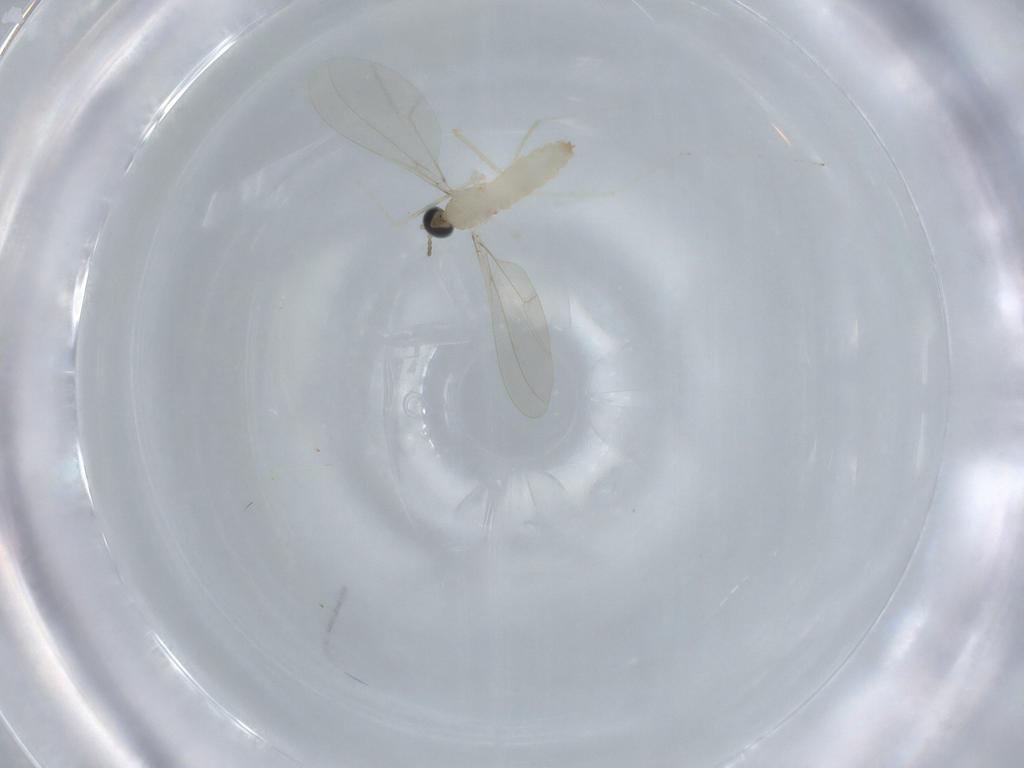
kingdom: Animalia
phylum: Arthropoda
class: Insecta
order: Diptera
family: Cecidomyiidae
